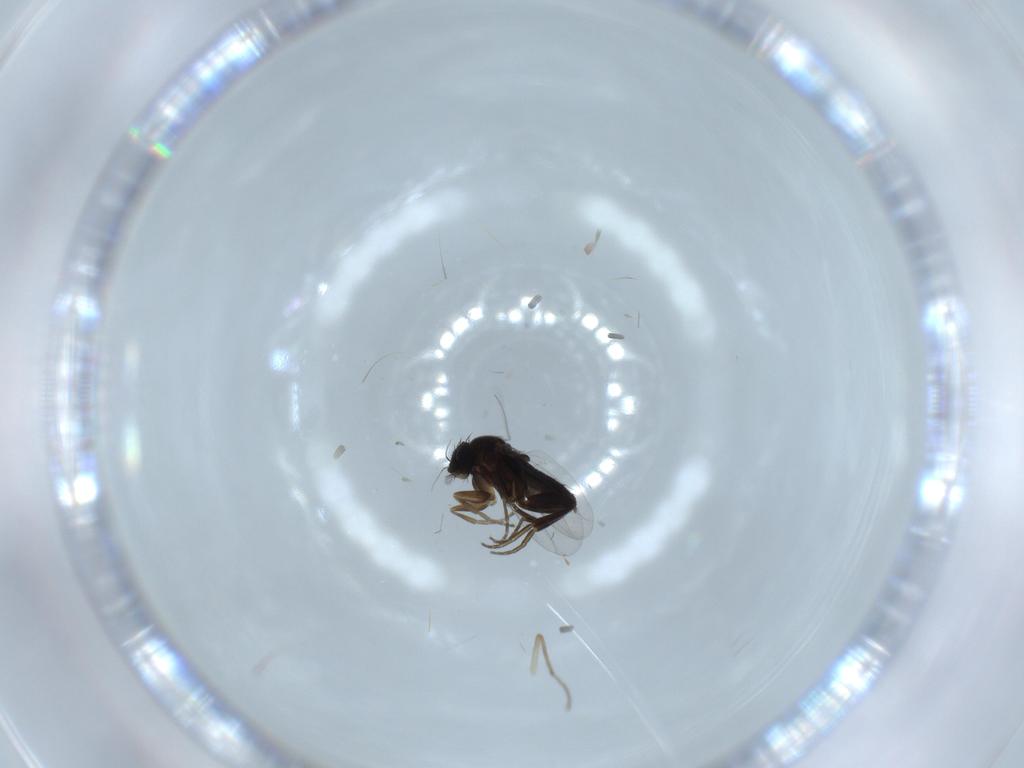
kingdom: Animalia
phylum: Arthropoda
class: Insecta
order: Diptera
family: Phoridae
